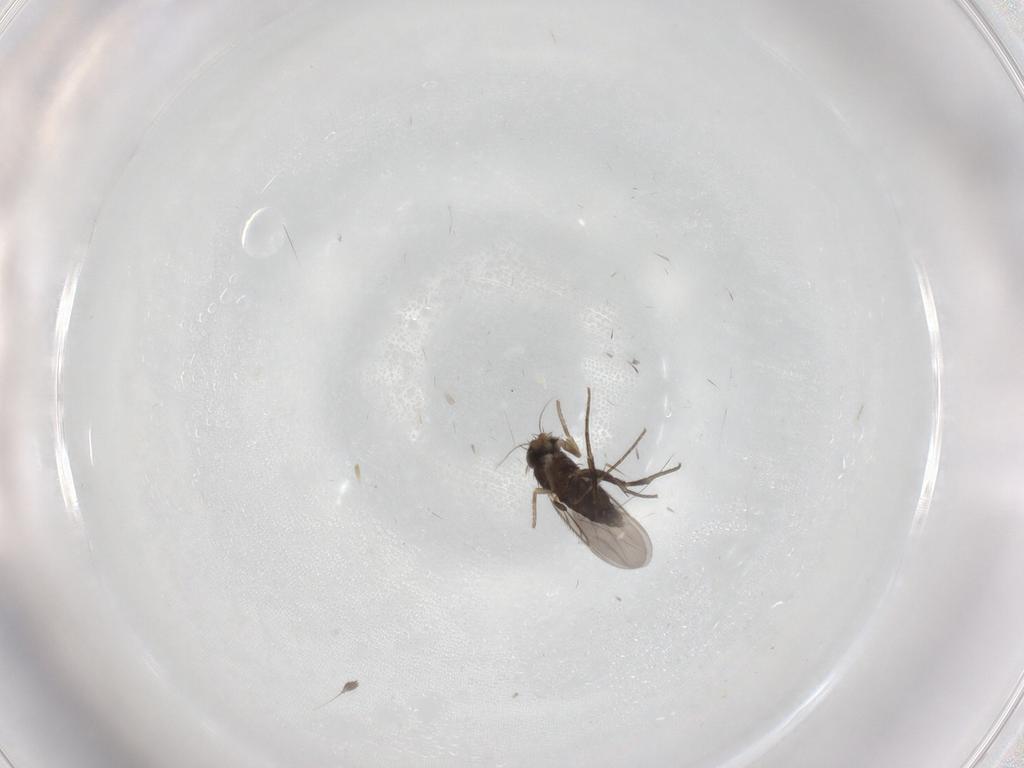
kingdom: Animalia
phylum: Arthropoda
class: Insecta
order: Diptera
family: Phoridae
